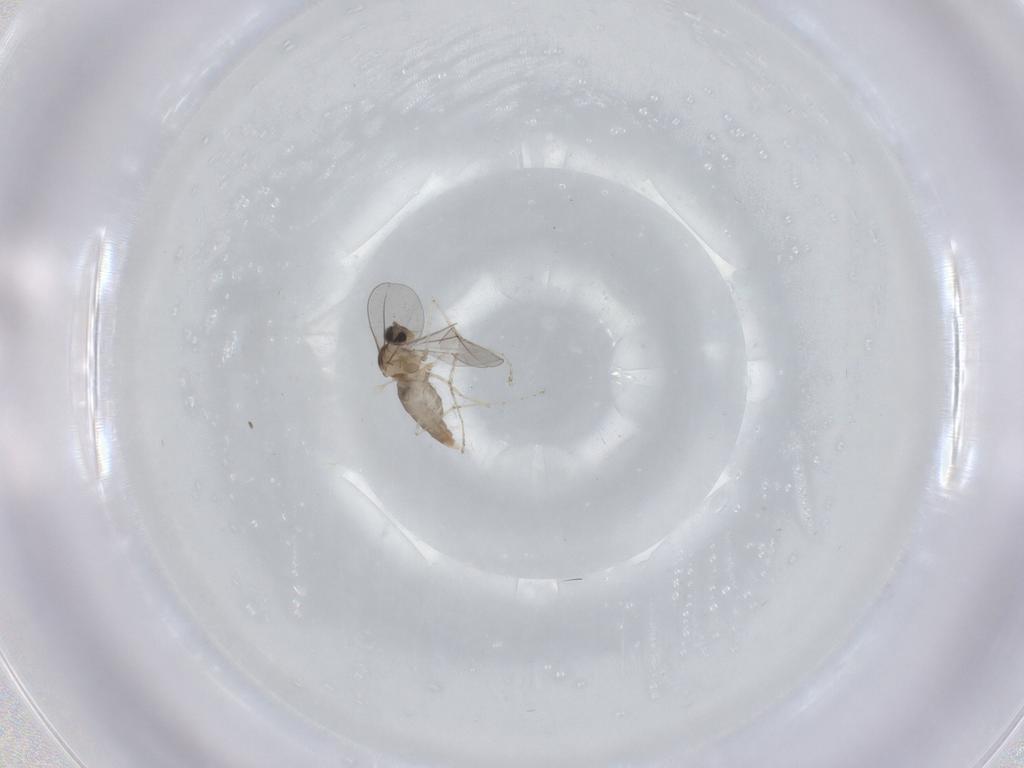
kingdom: Animalia
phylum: Arthropoda
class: Insecta
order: Diptera
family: Cecidomyiidae
